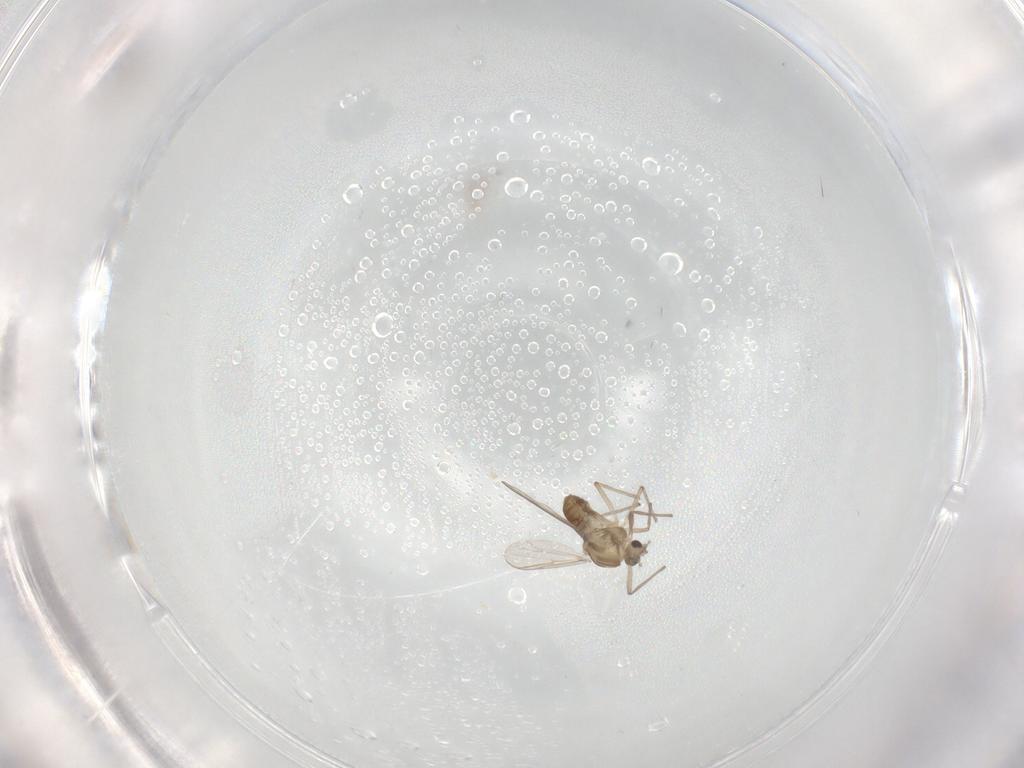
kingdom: Animalia
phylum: Arthropoda
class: Insecta
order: Diptera
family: Chironomidae
